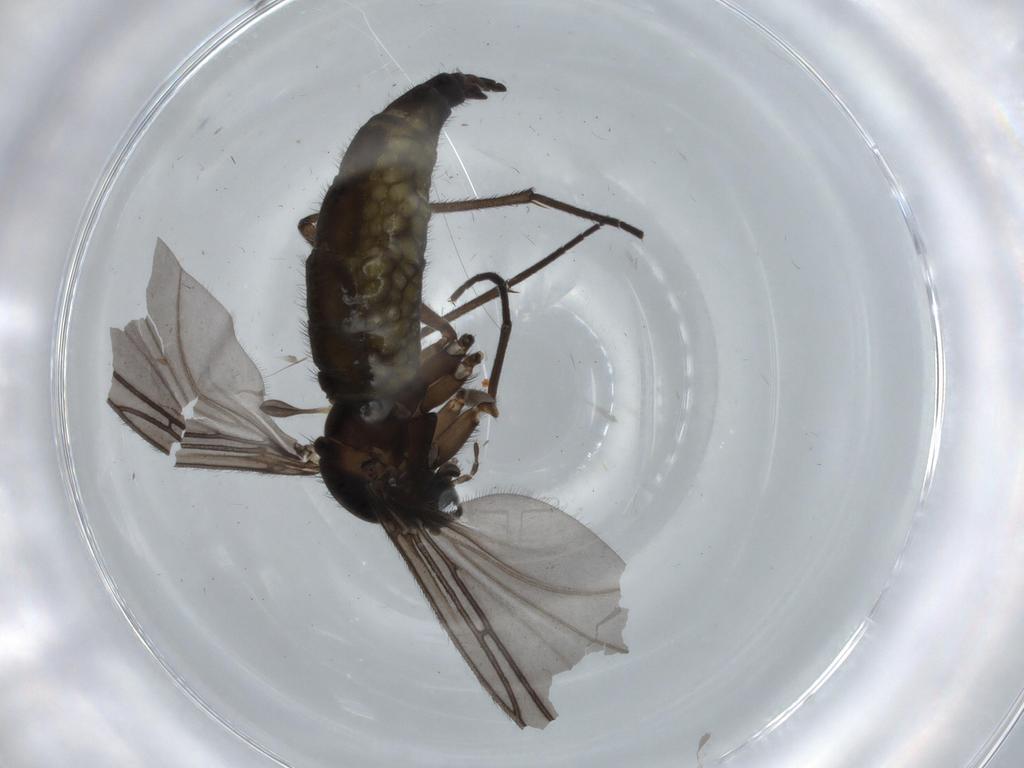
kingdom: Animalia
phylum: Arthropoda
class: Insecta
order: Diptera
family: Sciaridae
